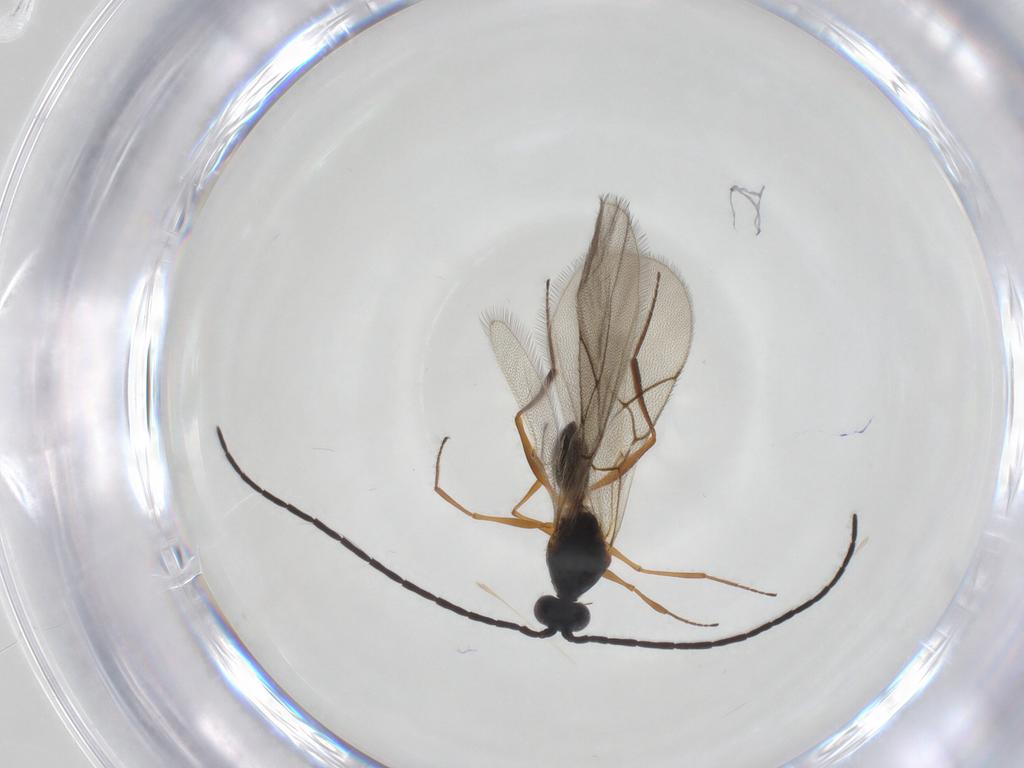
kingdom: Animalia
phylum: Arthropoda
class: Insecta
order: Hymenoptera
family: Figitidae
